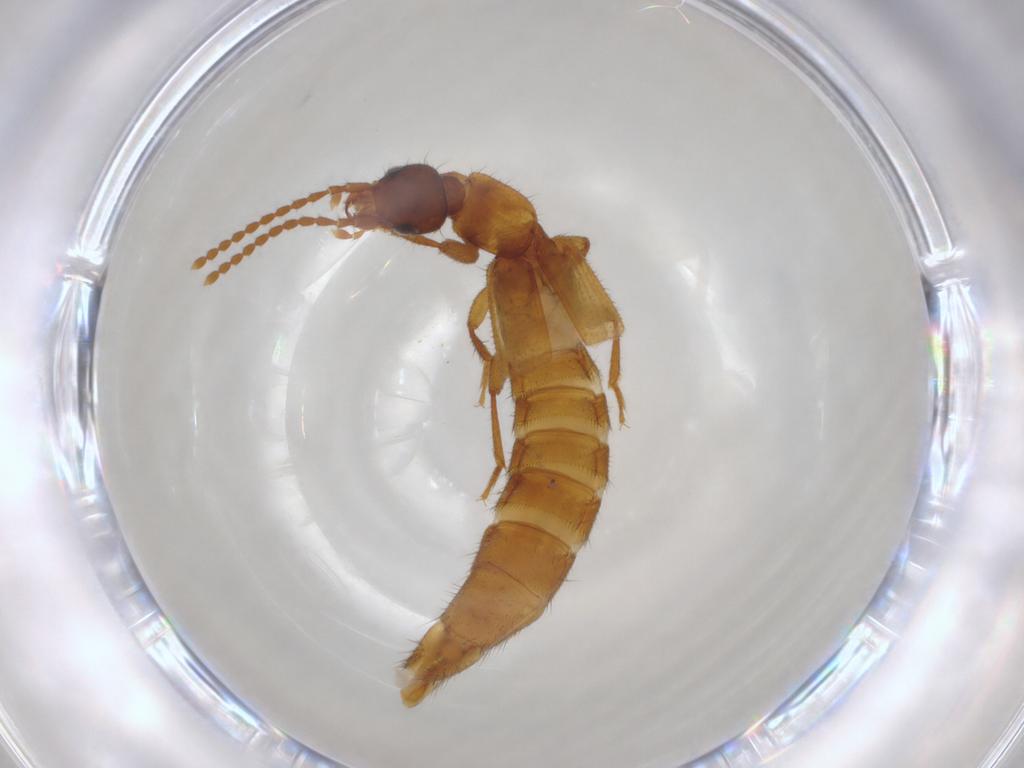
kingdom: Animalia
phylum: Arthropoda
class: Insecta
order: Coleoptera
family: Staphylinidae
